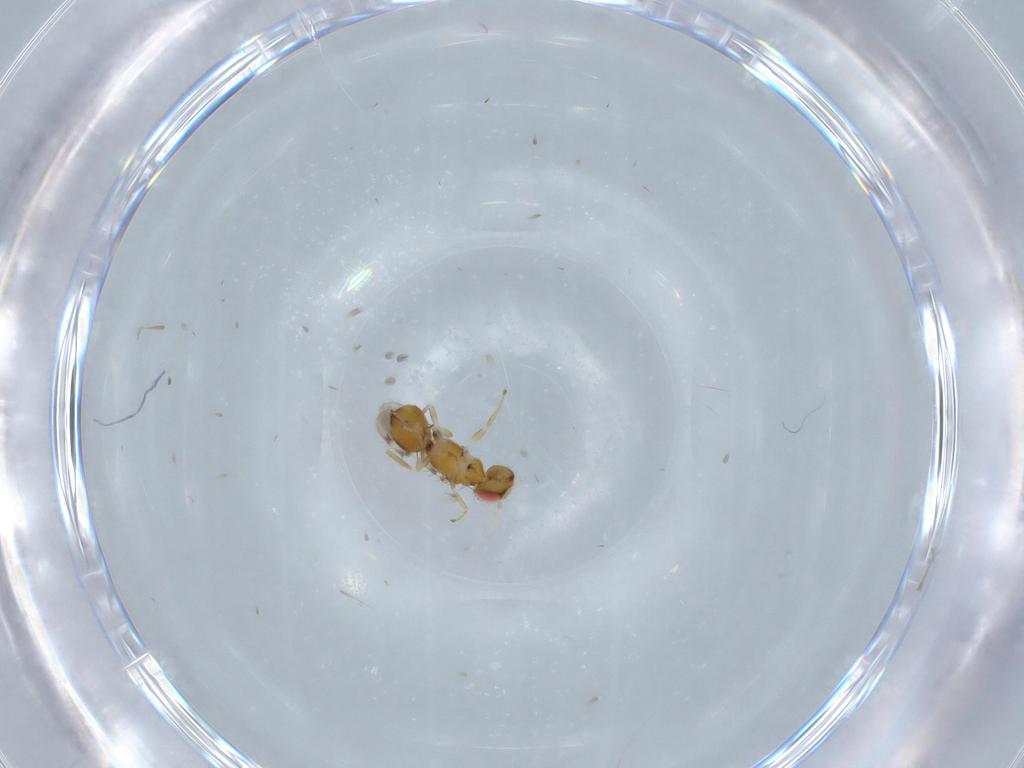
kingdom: Animalia
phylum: Arthropoda
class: Insecta
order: Hymenoptera
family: Eulophidae
